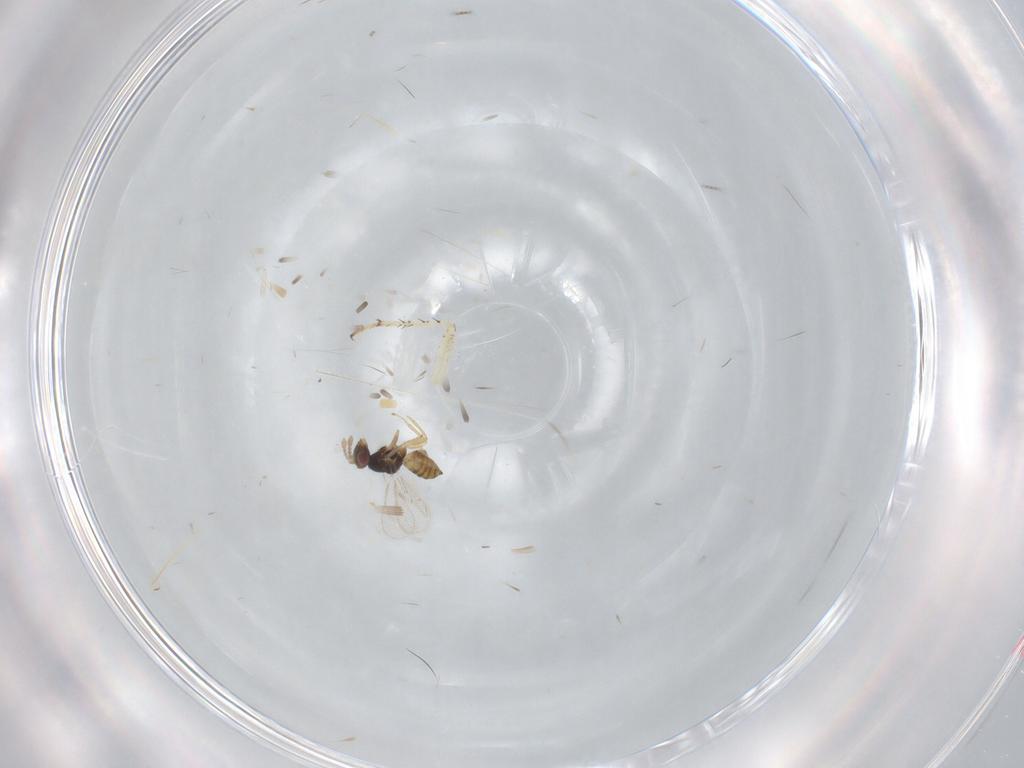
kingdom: Animalia
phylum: Arthropoda
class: Insecta
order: Hymenoptera
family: Eulophidae
